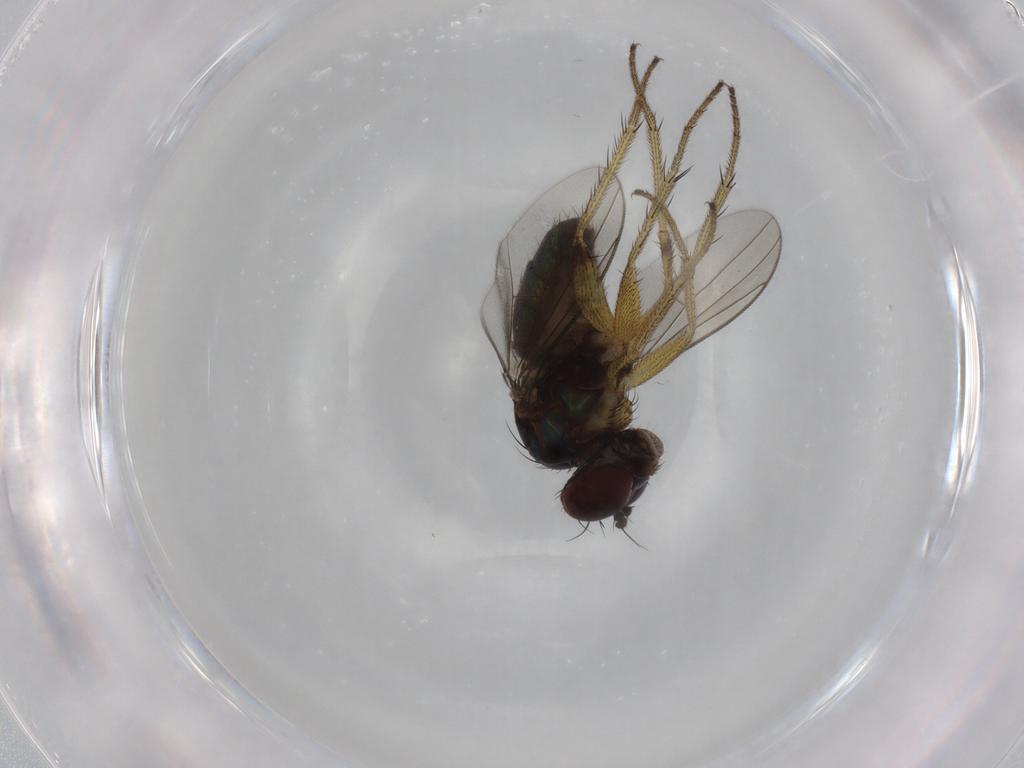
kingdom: Animalia
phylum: Arthropoda
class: Insecta
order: Diptera
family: Dolichopodidae
